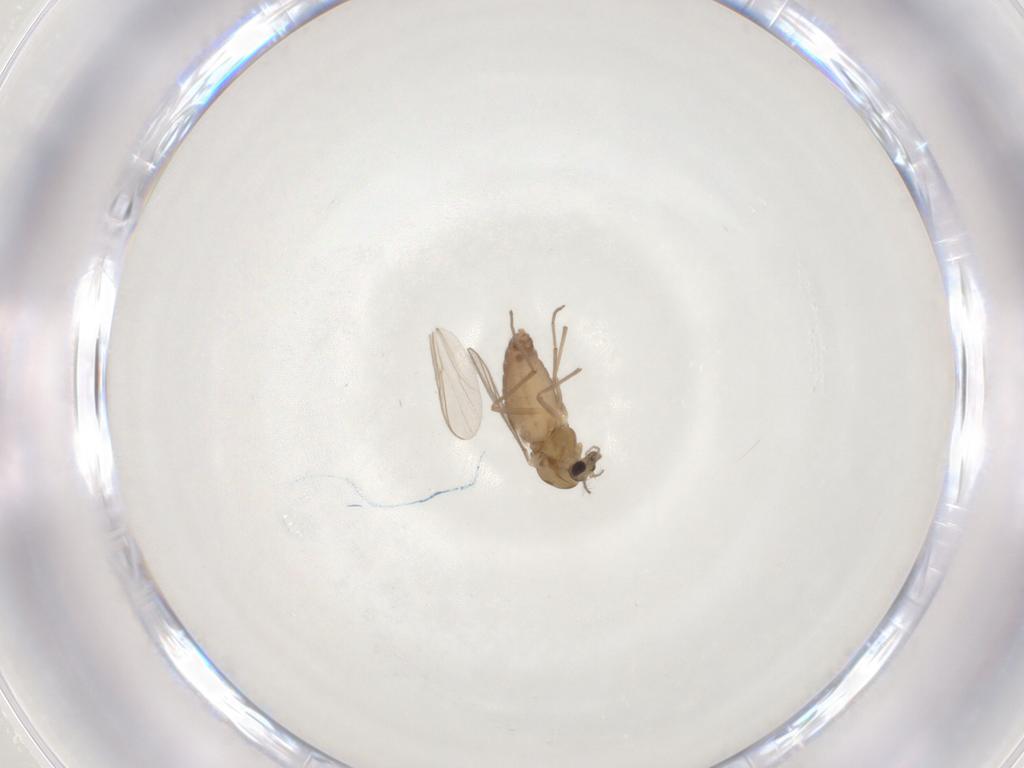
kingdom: Animalia
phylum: Arthropoda
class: Insecta
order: Diptera
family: Chironomidae
